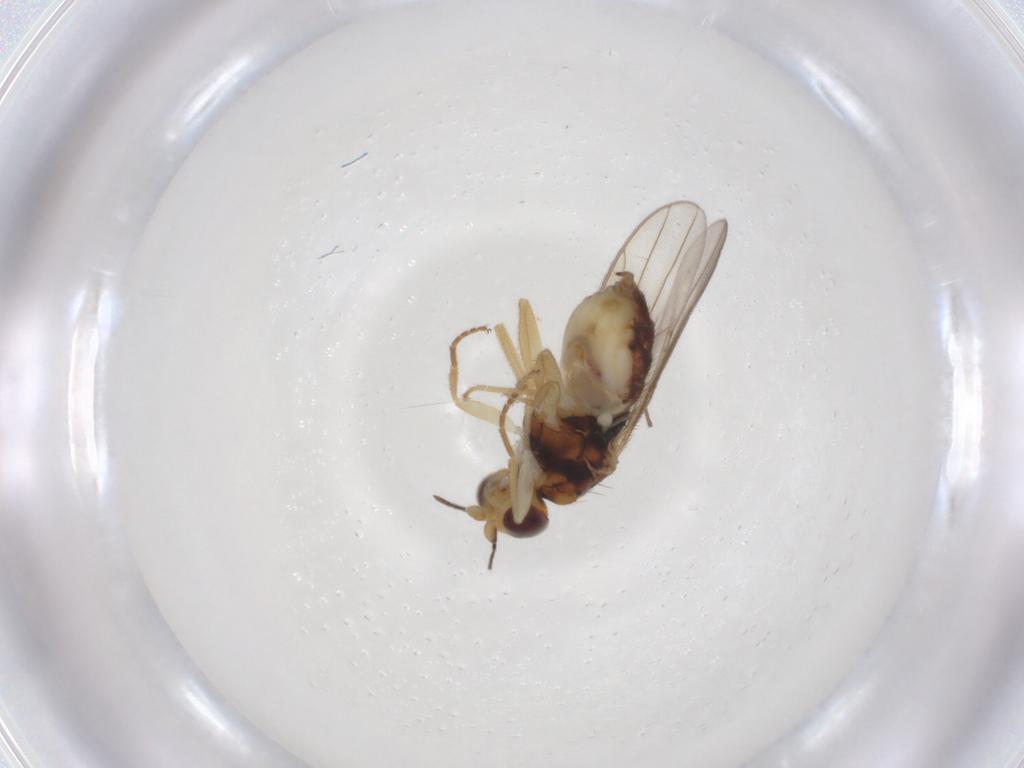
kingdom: Animalia
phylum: Arthropoda
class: Insecta
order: Diptera
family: Chloropidae
